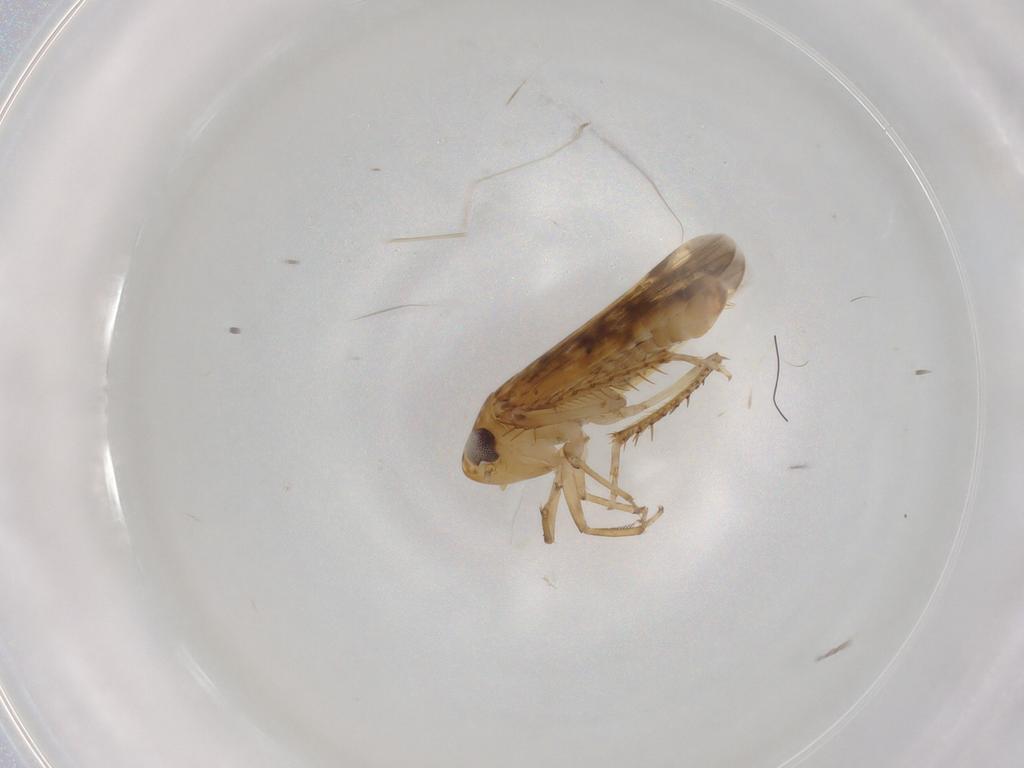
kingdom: Animalia
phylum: Arthropoda
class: Insecta
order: Hemiptera
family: Cicadellidae
